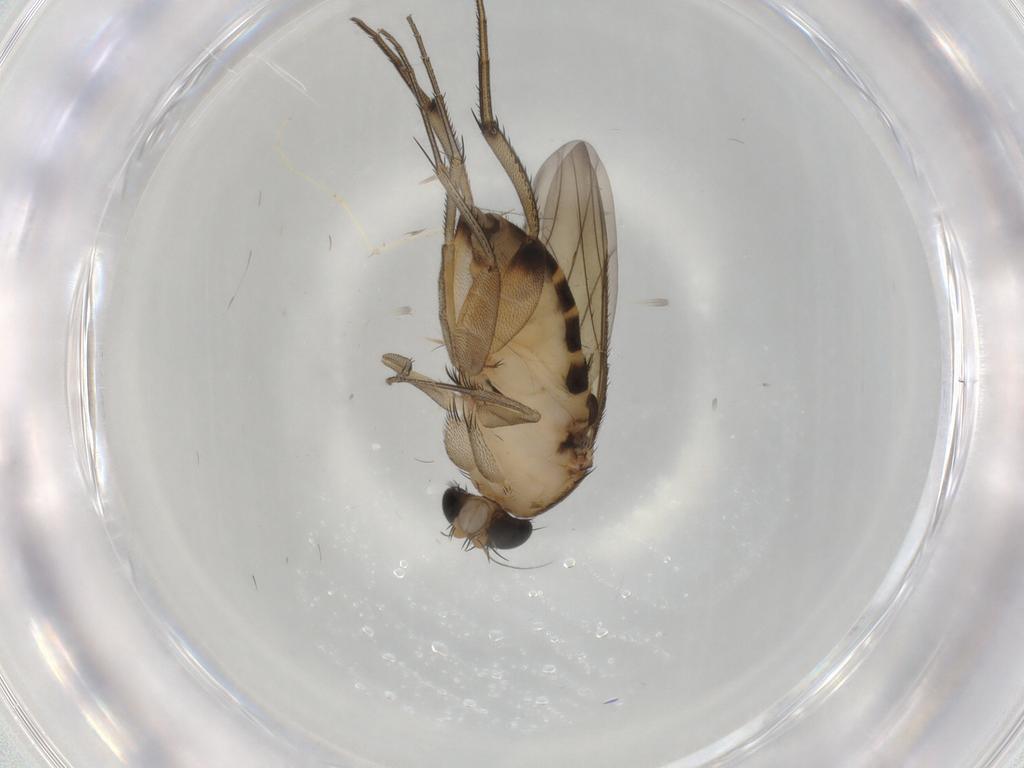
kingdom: Animalia
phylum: Arthropoda
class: Insecta
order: Diptera
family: Phoridae
